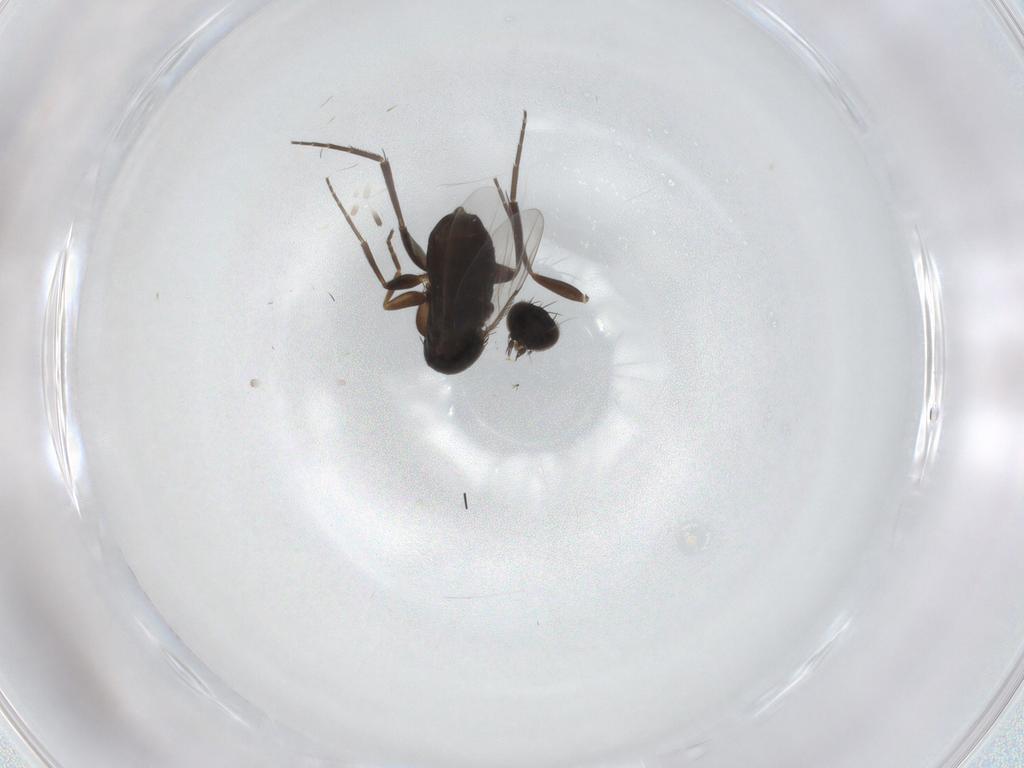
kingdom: Animalia
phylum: Arthropoda
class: Insecta
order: Diptera
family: Phoridae
